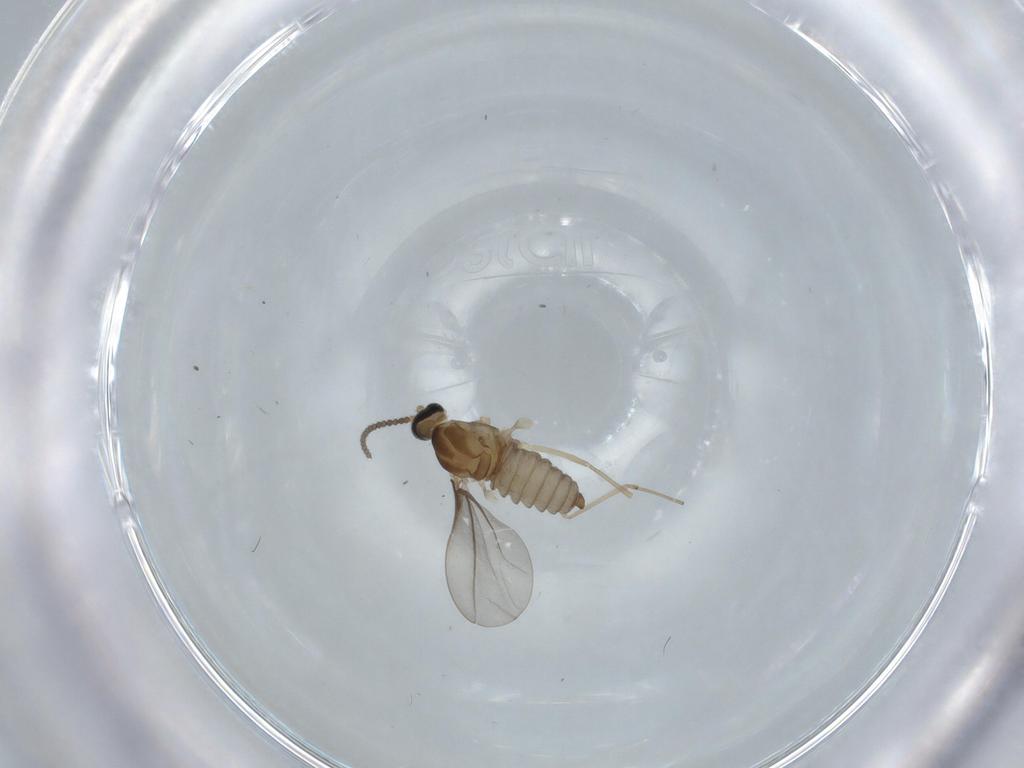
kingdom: Animalia
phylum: Arthropoda
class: Insecta
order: Diptera
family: Cecidomyiidae
